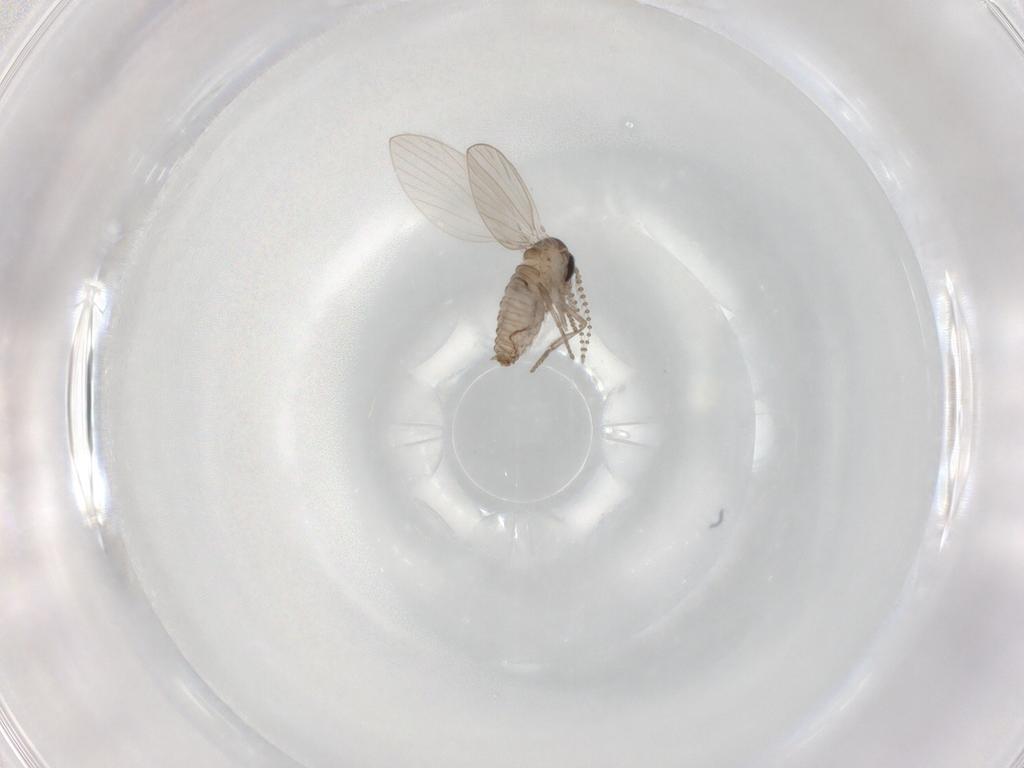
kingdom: Animalia
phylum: Arthropoda
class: Insecta
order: Diptera
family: Psychodidae
